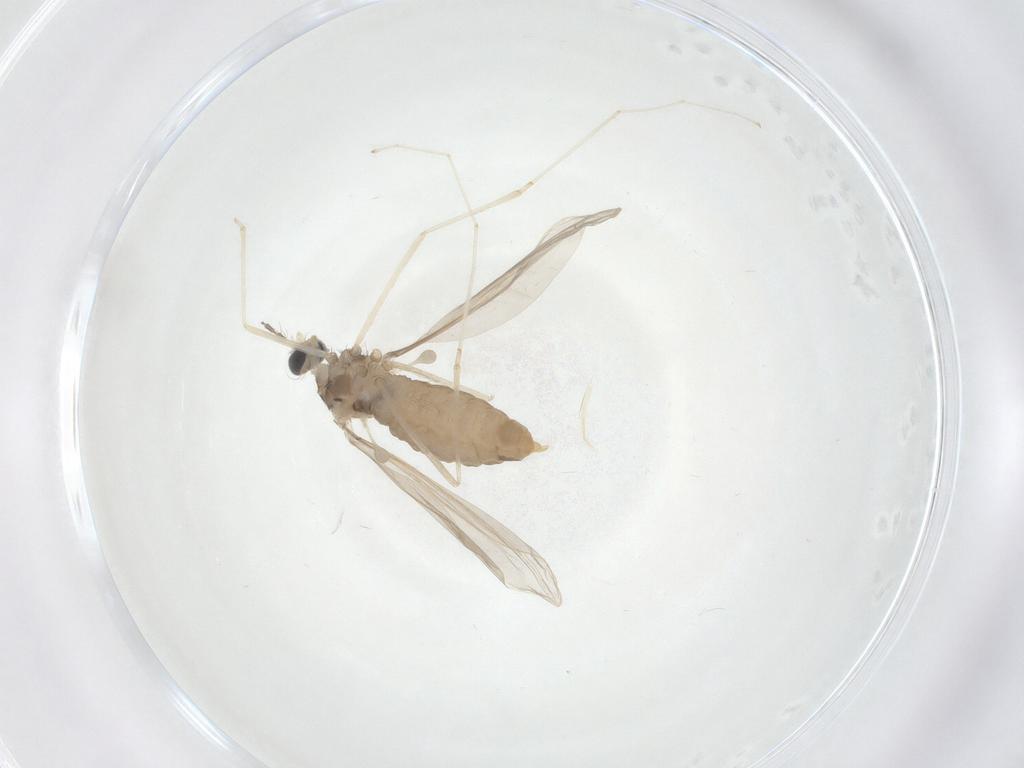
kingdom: Animalia
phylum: Arthropoda
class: Insecta
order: Diptera
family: Cecidomyiidae
